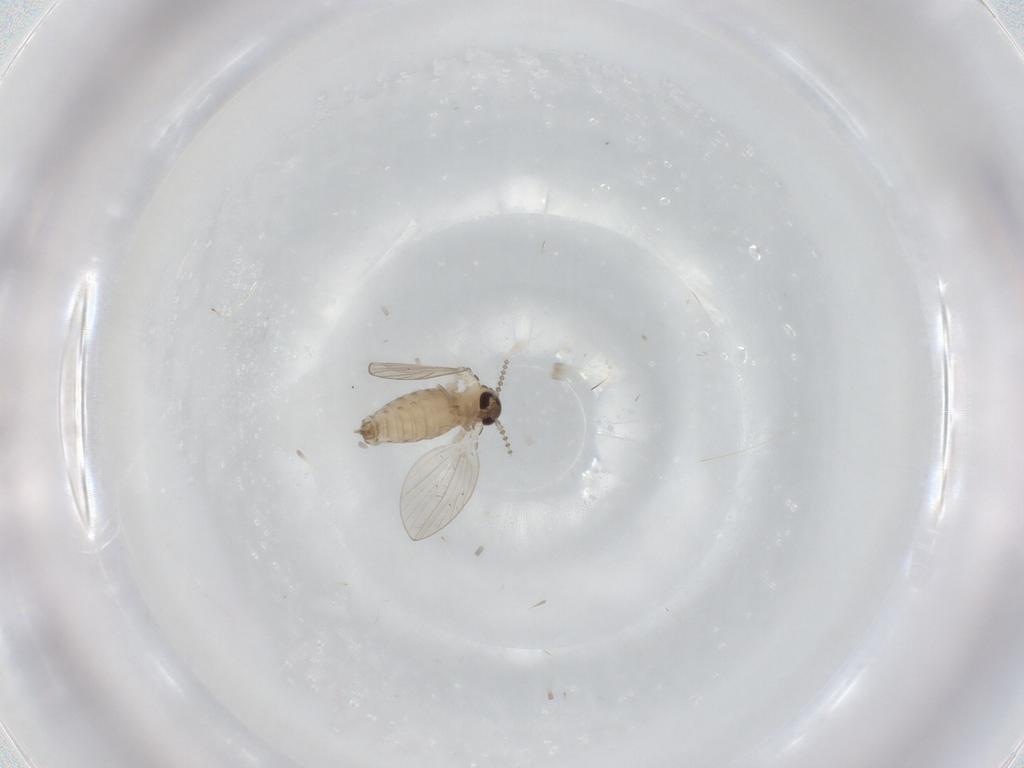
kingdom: Animalia
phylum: Arthropoda
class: Insecta
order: Diptera
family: Psychodidae
